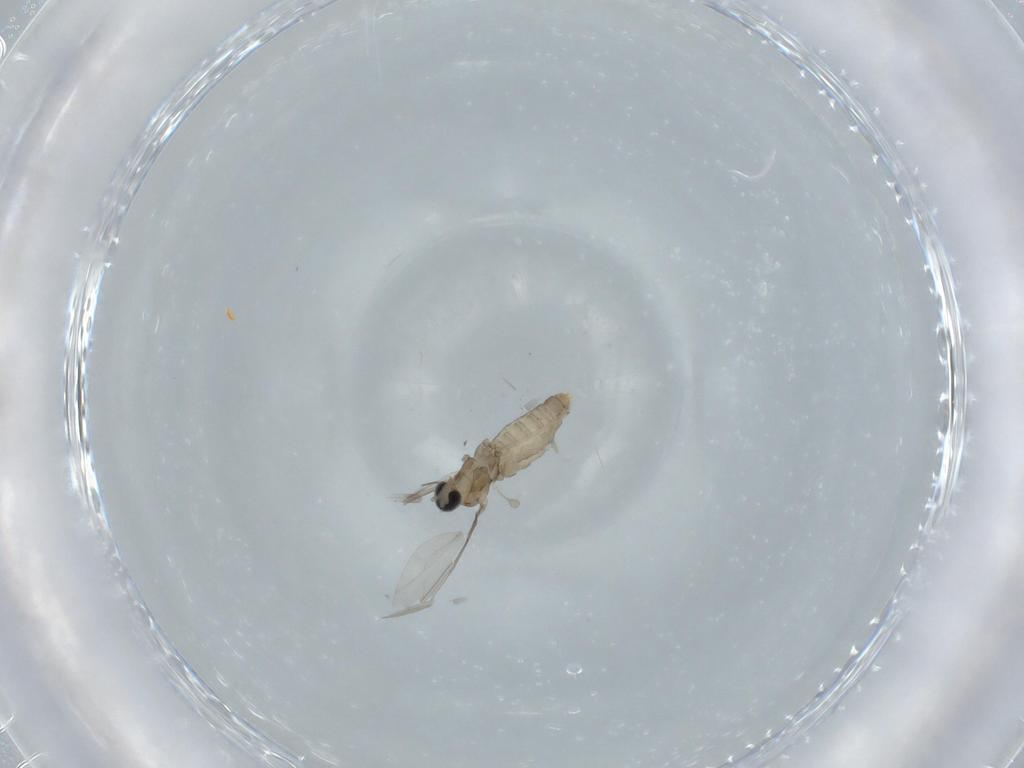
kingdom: Animalia
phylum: Arthropoda
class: Insecta
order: Diptera
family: Cecidomyiidae
